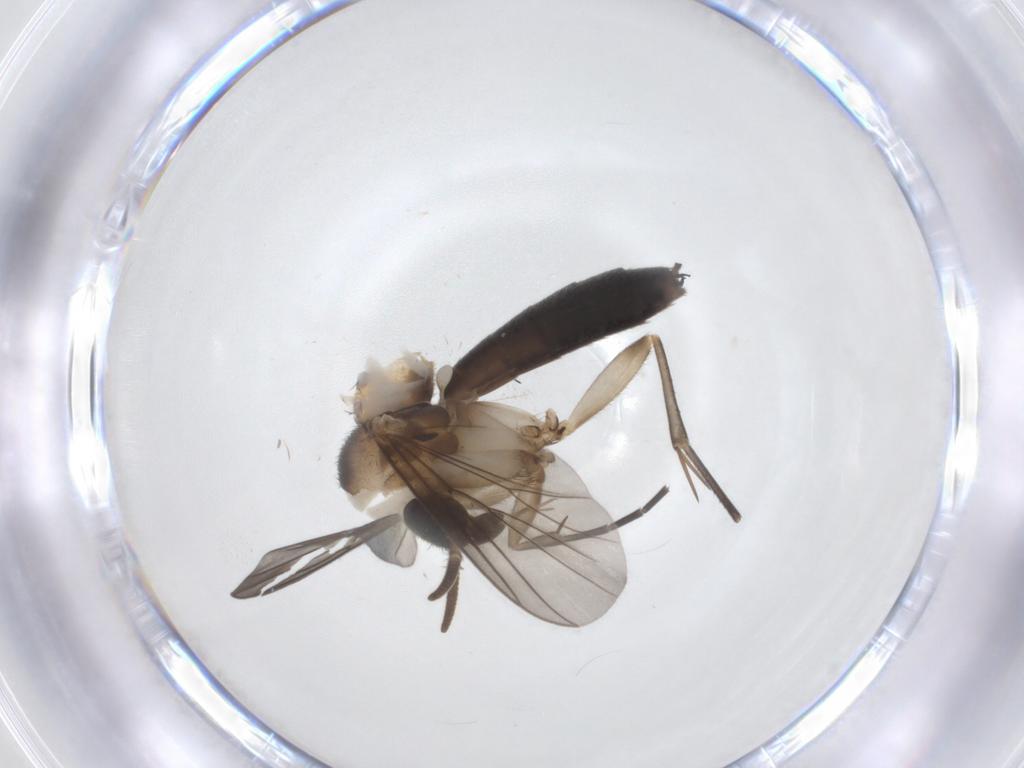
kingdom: Animalia
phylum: Arthropoda
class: Insecta
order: Diptera
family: Mycetophilidae
